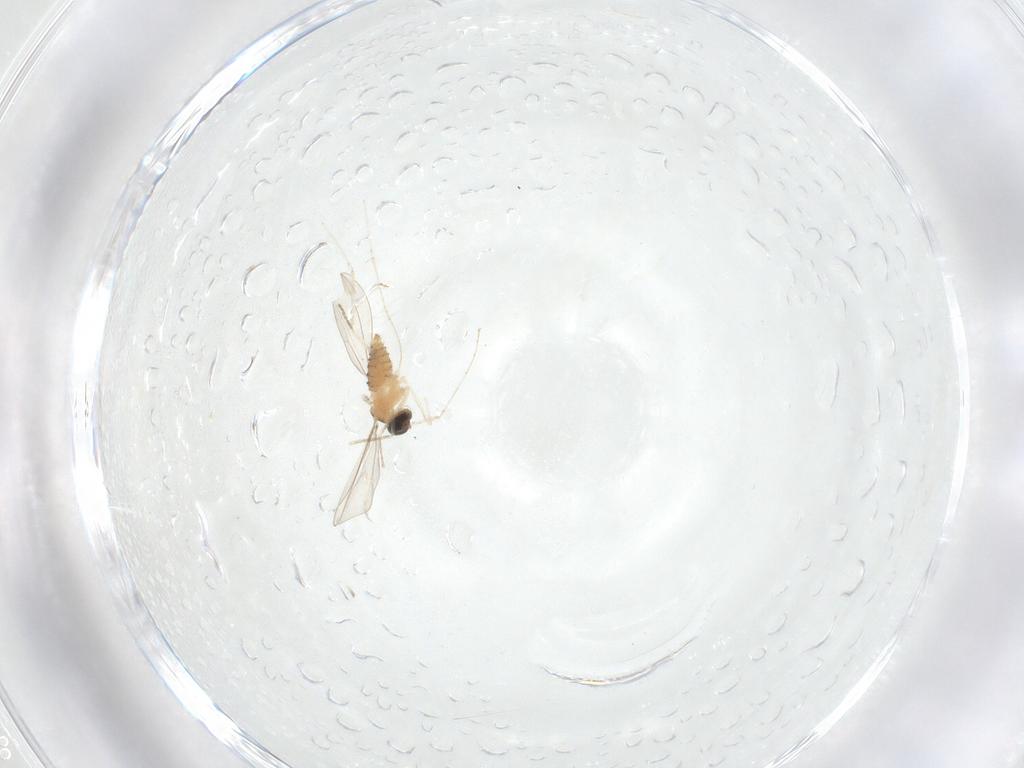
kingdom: Animalia
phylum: Arthropoda
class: Insecta
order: Diptera
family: Cecidomyiidae
